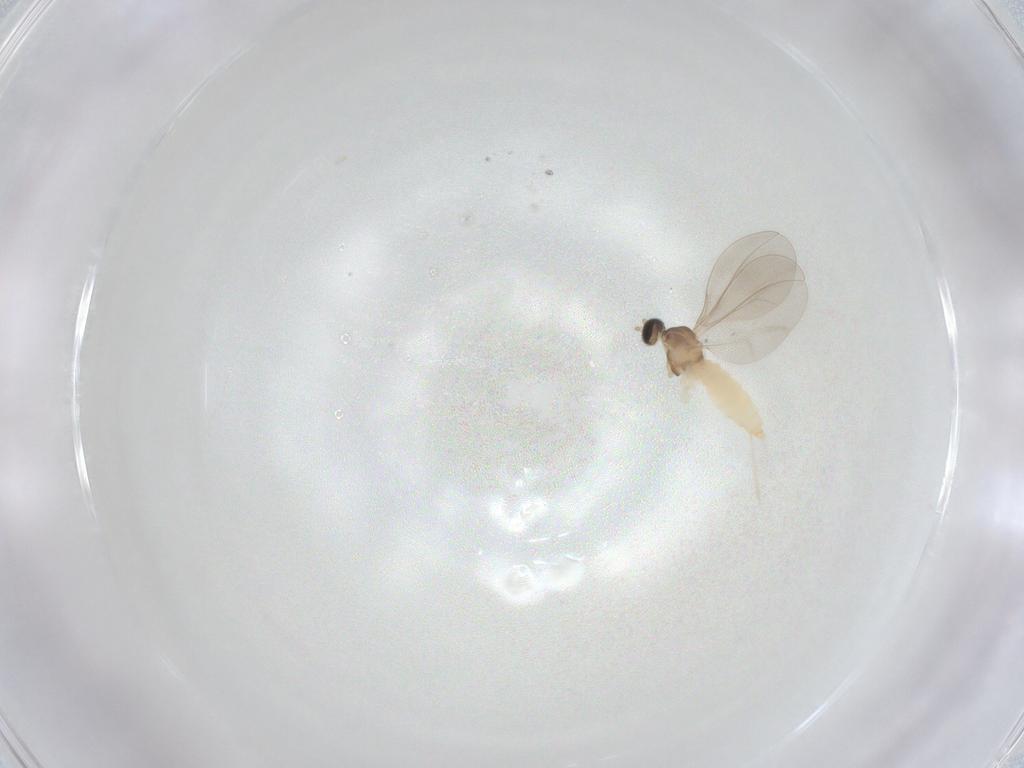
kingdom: Animalia
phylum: Arthropoda
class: Insecta
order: Diptera
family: Cecidomyiidae
